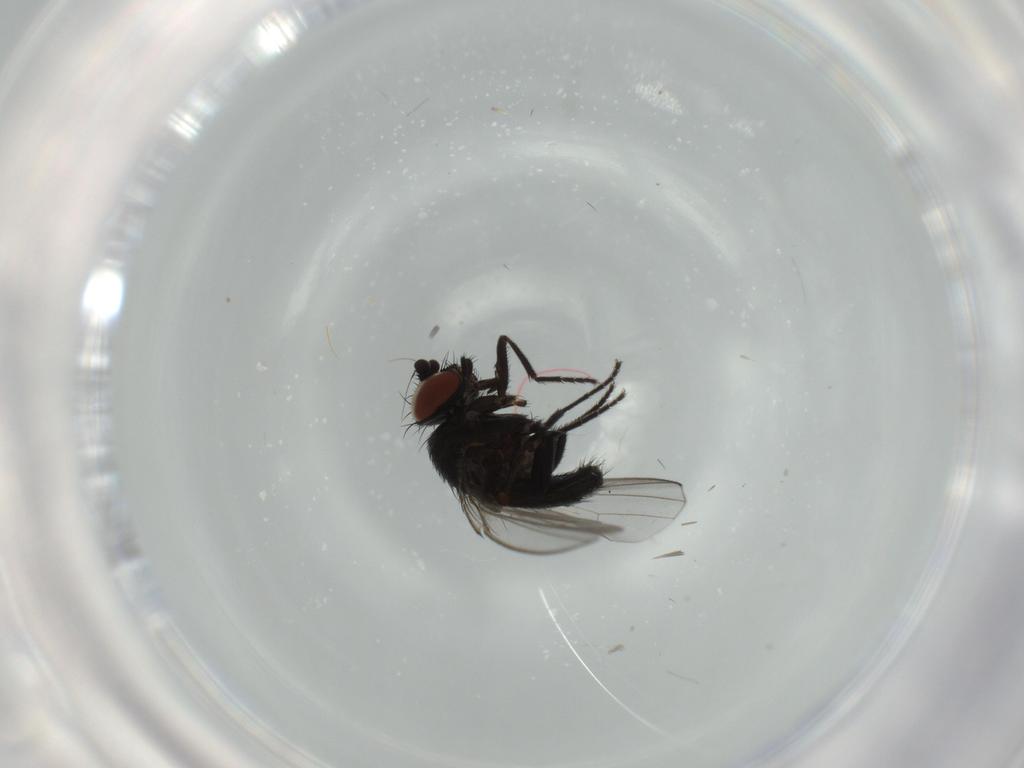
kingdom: Animalia
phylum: Arthropoda
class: Insecta
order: Diptera
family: Milichiidae
